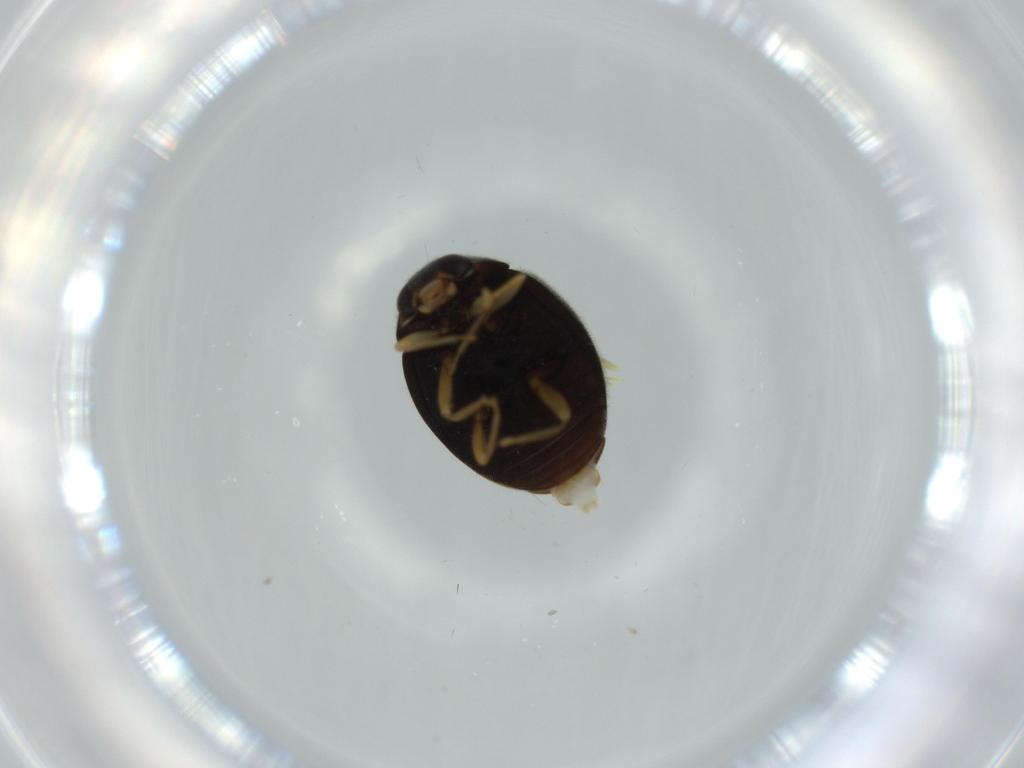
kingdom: Animalia
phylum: Arthropoda
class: Insecta
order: Coleoptera
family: Coccinellidae
